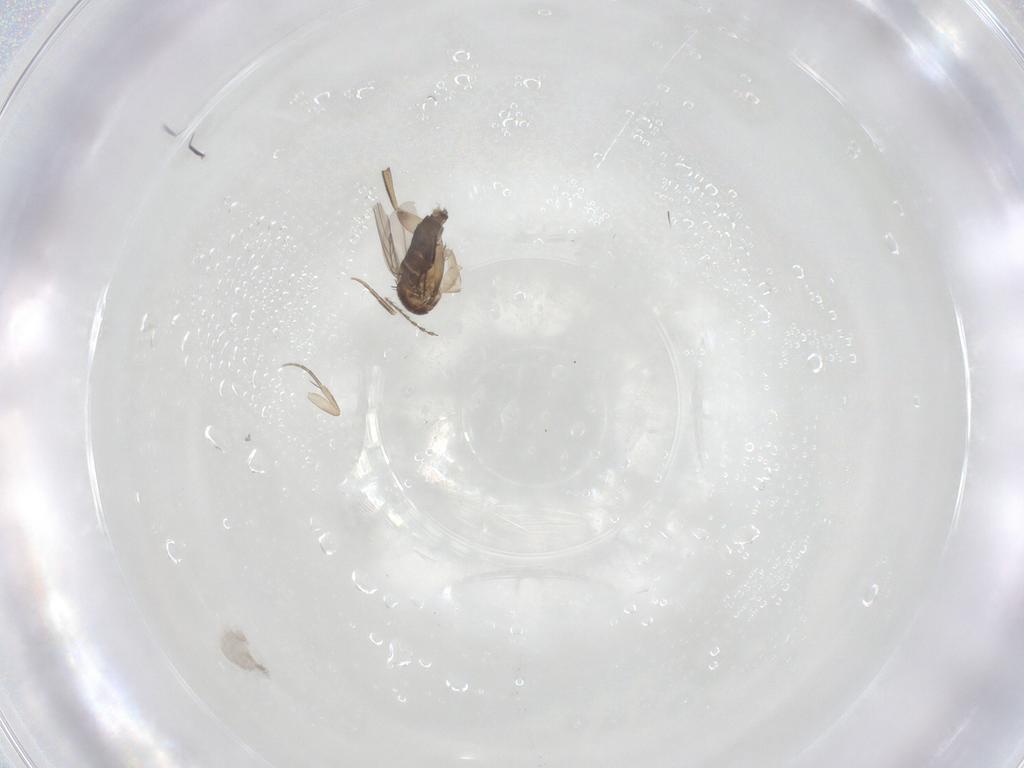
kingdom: Animalia
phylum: Arthropoda
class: Insecta
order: Diptera
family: Phoridae
